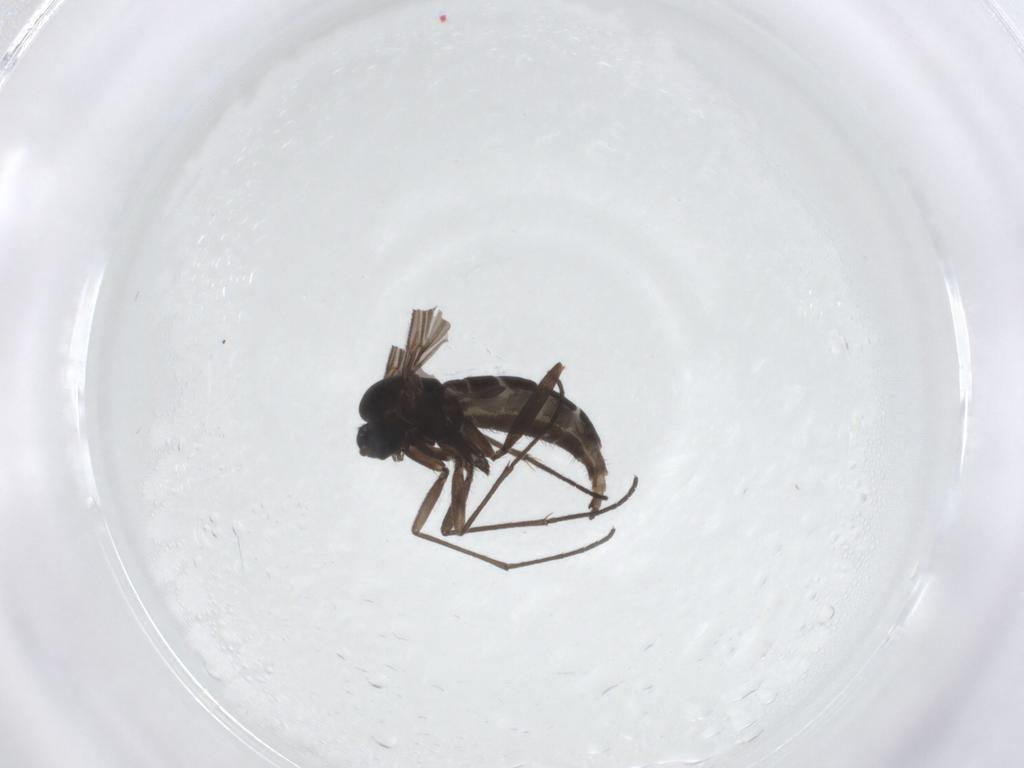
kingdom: Animalia
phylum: Arthropoda
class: Insecta
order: Diptera
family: Sciaridae
